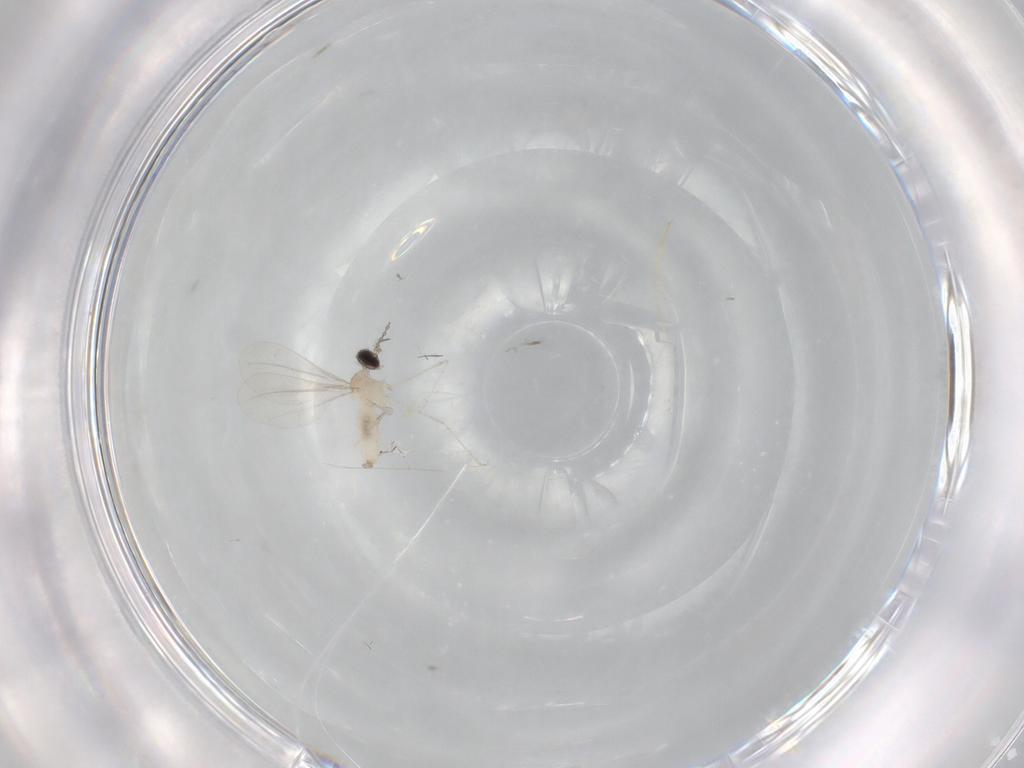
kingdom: Animalia
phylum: Arthropoda
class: Insecta
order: Diptera
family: Cecidomyiidae
